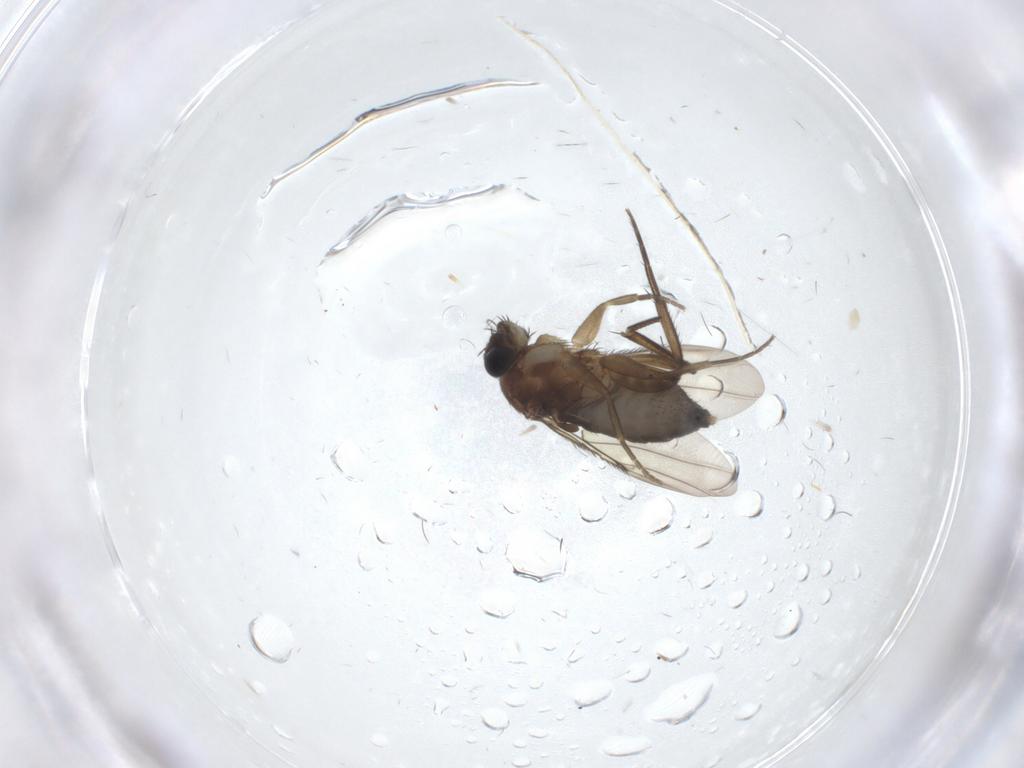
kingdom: Animalia
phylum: Arthropoda
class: Insecta
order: Diptera
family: Phoridae
